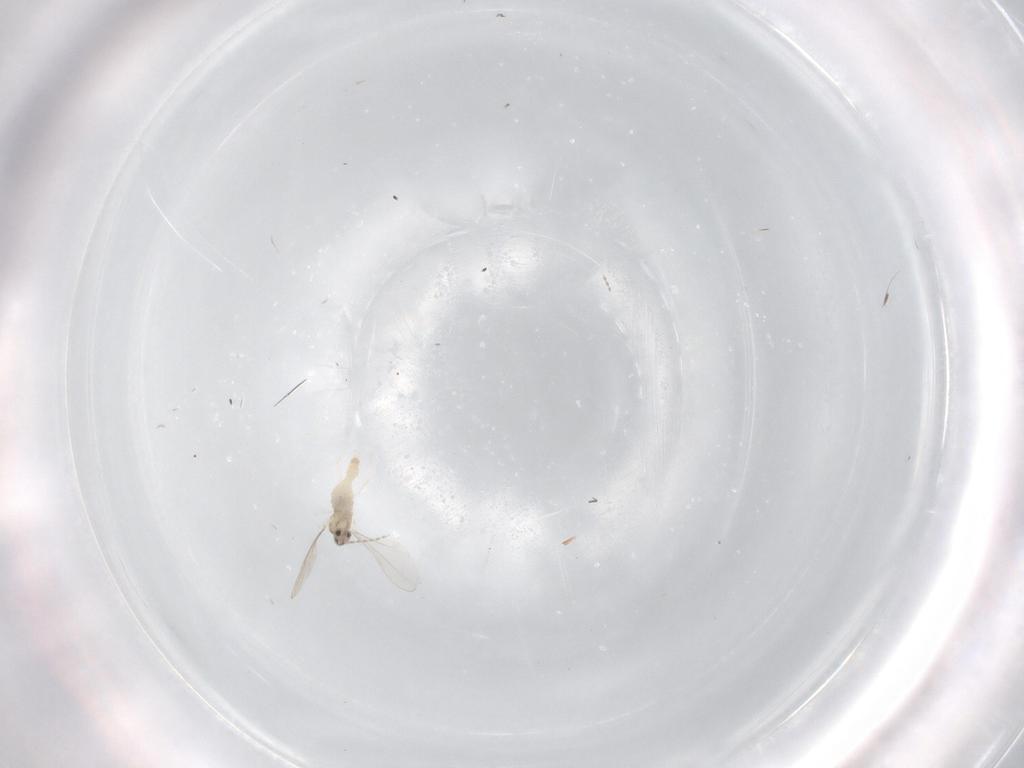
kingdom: Animalia
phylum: Arthropoda
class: Insecta
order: Diptera
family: Cecidomyiidae
